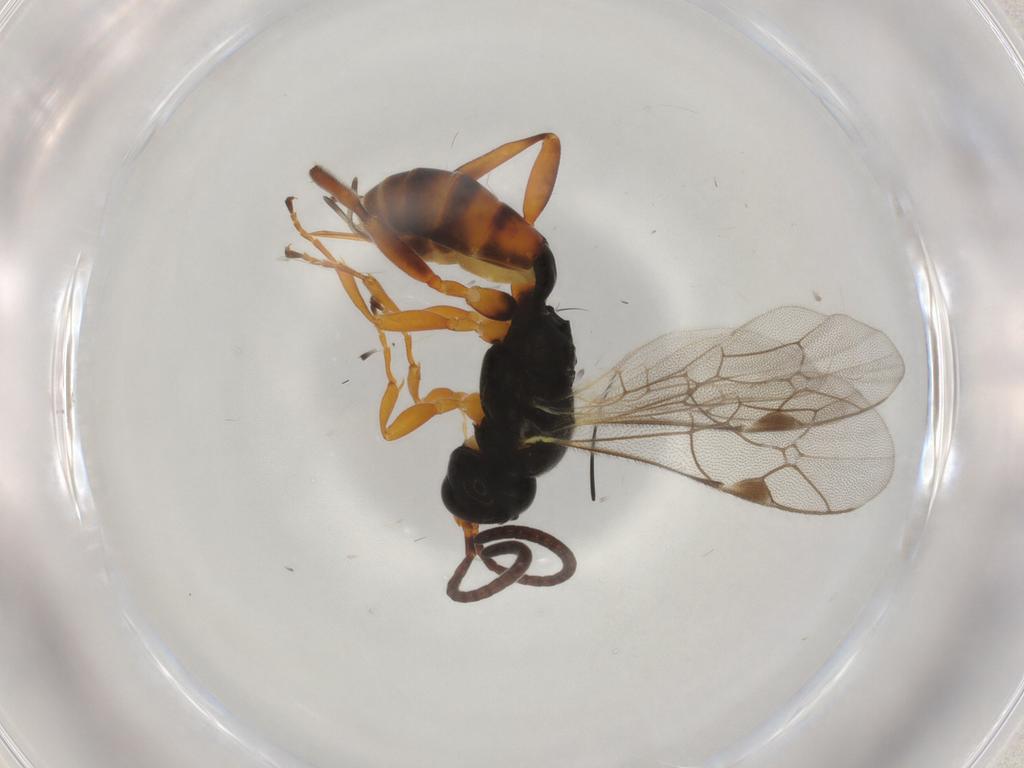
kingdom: Animalia
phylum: Arthropoda
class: Insecta
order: Hymenoptera
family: Ichneumonidae
